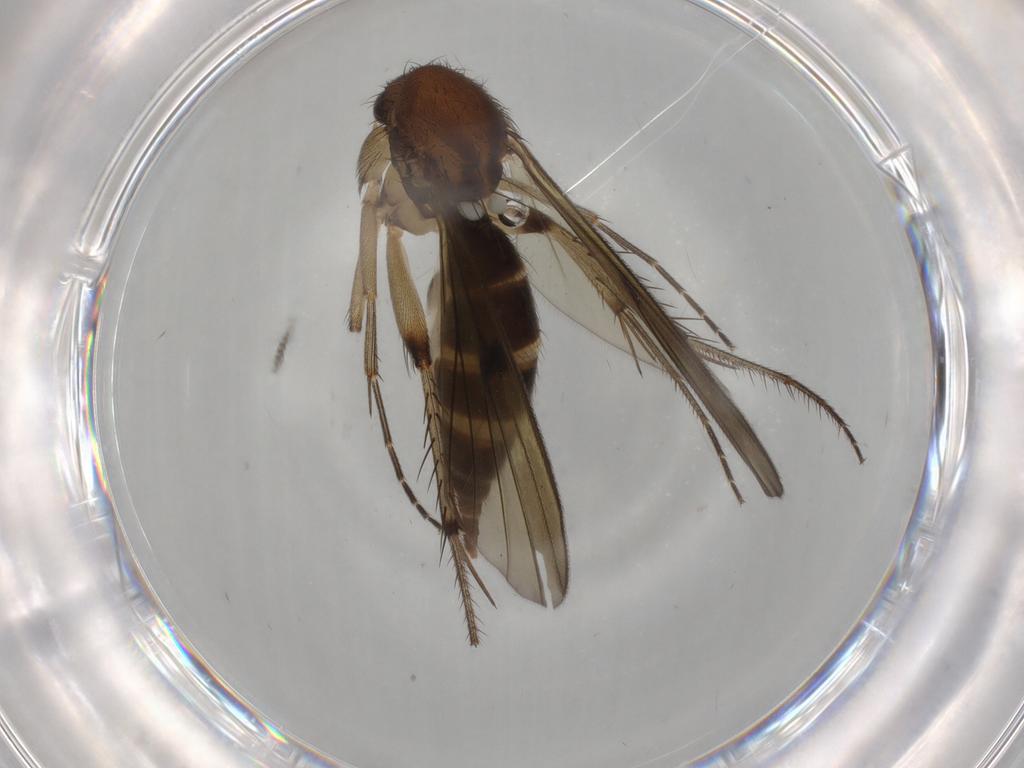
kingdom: Animalia
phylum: Arthropoda
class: Insecta
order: Diptera
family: Mycetophilidae
